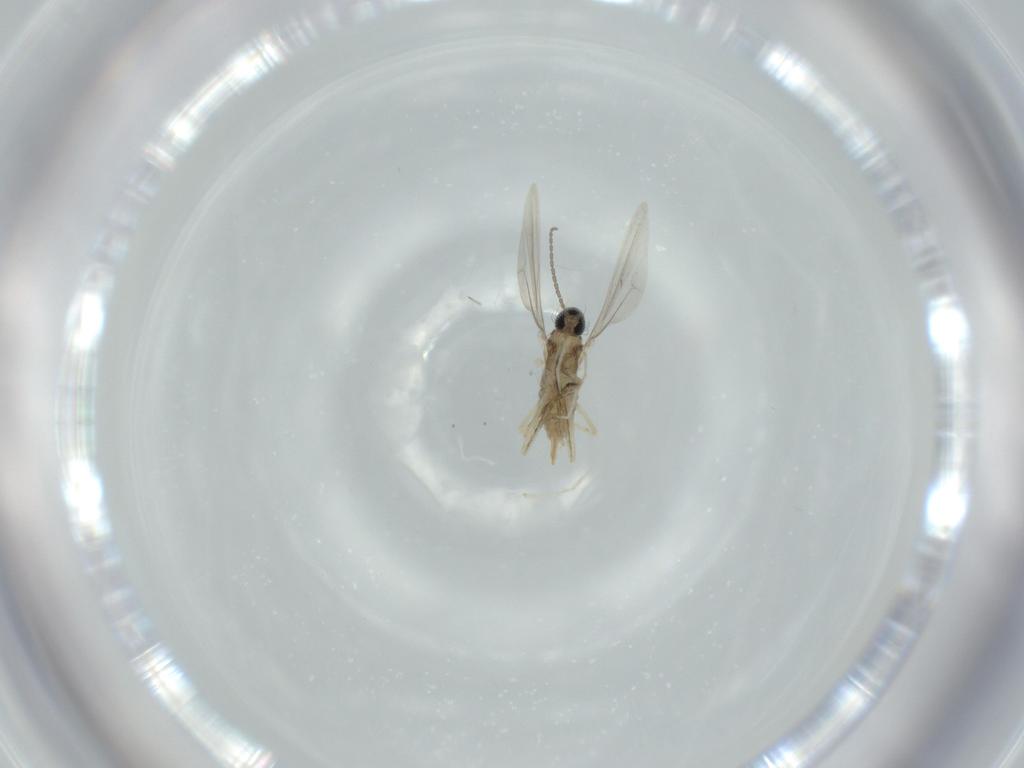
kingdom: Animalia
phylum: Arthropoda
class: Insecta
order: Diptera
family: Cecidomyiidae
